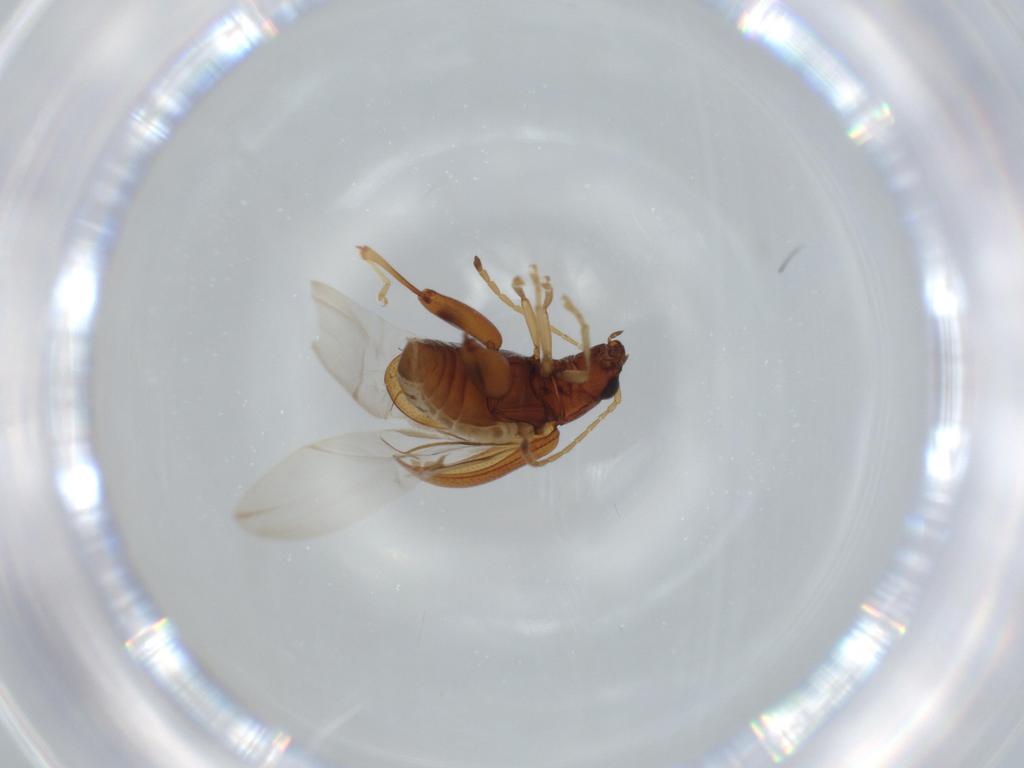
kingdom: Animalia
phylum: Arthropoda
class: Insecta
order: Coleoptera
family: Chrysomelidae
